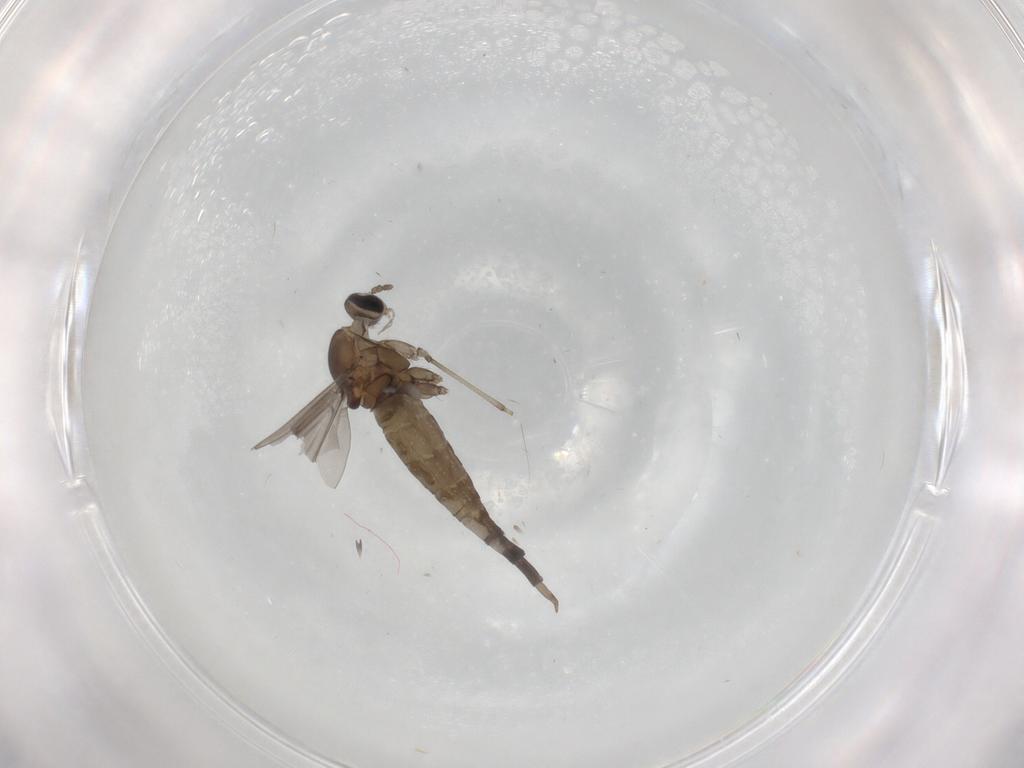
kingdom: Animalia
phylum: Arthropoda
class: Insecta
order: Diptera
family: Cecidomyiidae
